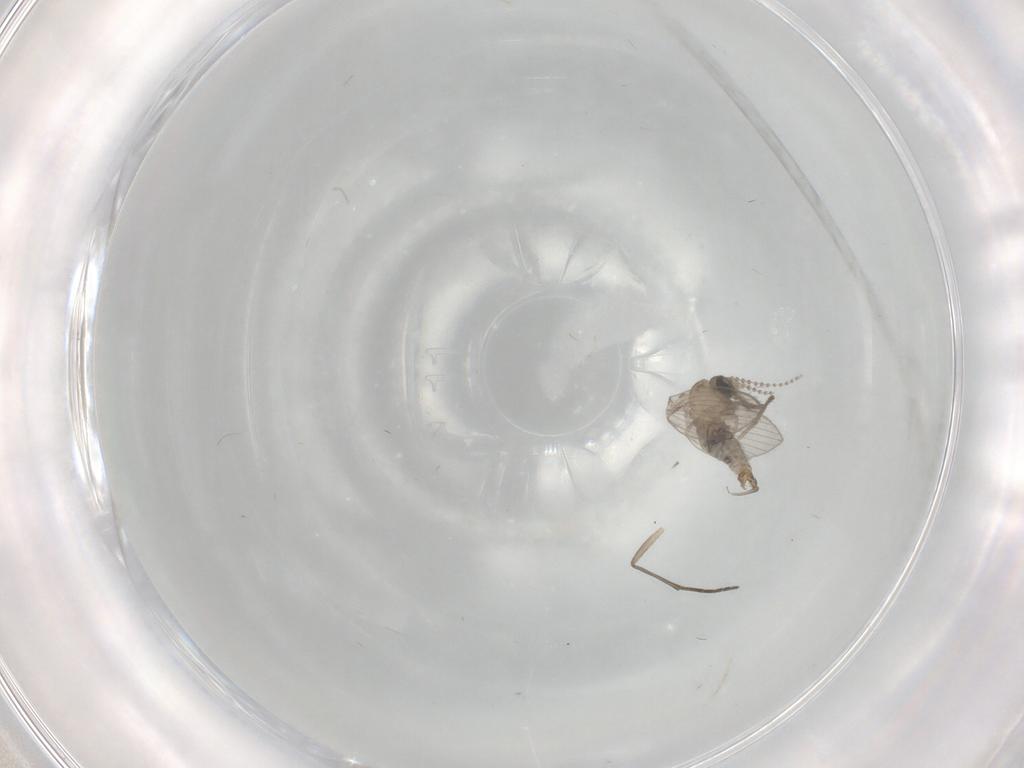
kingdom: Animalia
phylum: Arthropoda
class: Insecta
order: Diptera
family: Psychodidae
